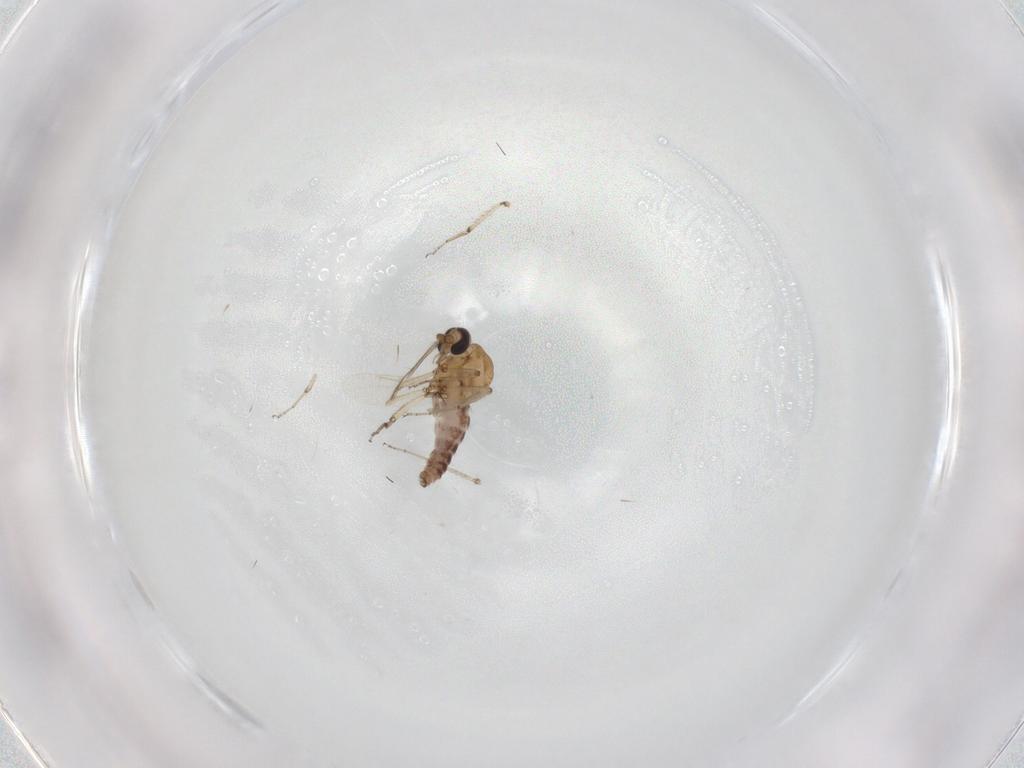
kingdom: Animalia
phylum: Arthropoda
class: Insecta
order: Diptera
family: Ceratopogonidae
